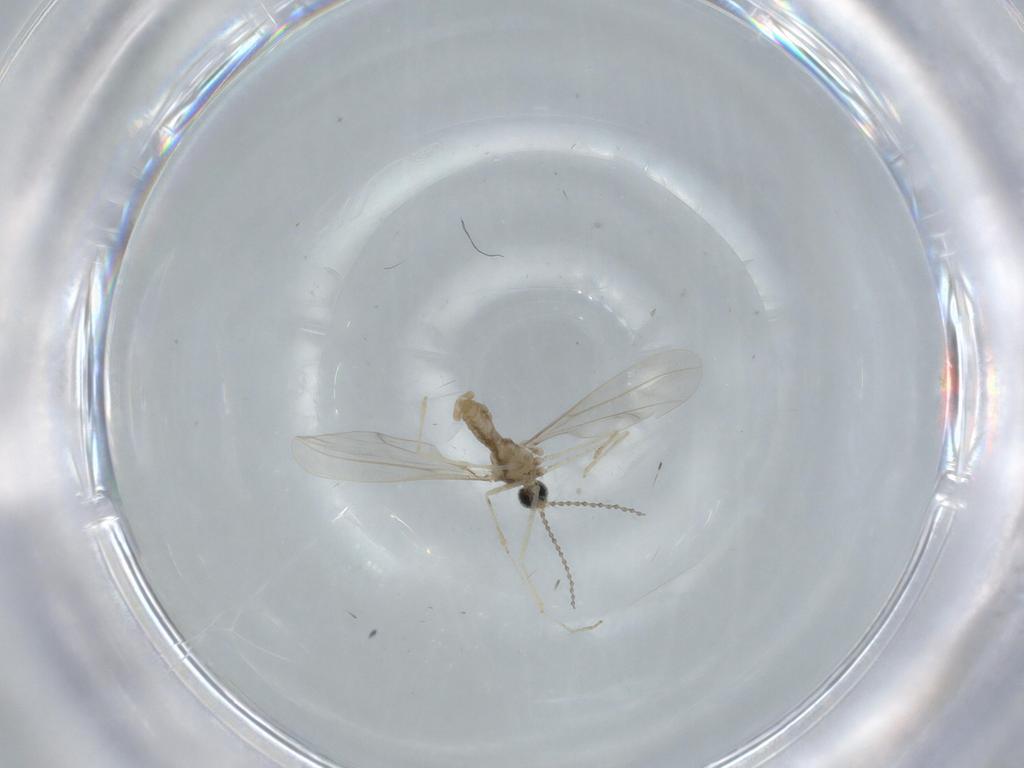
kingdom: Animalia
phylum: Arthropoda
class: Insecta
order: Diptera
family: Cecidomyiidae
